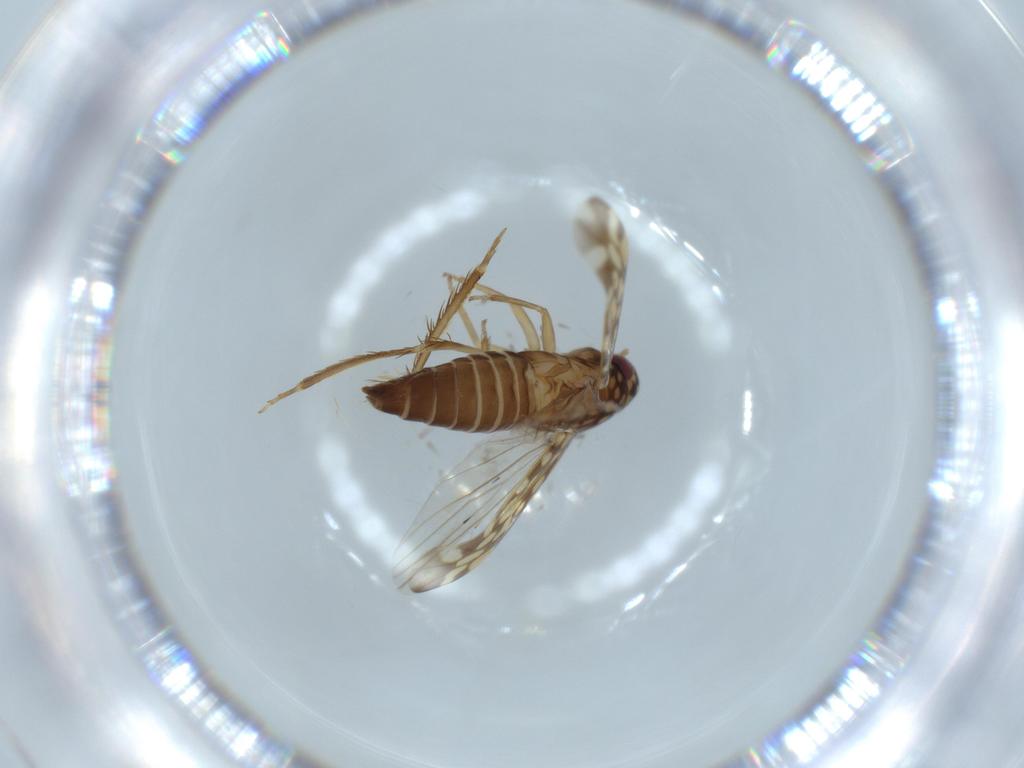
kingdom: Animalia
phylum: Arthropoda
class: Insecta
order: Hemiptera
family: Cicadellidae
